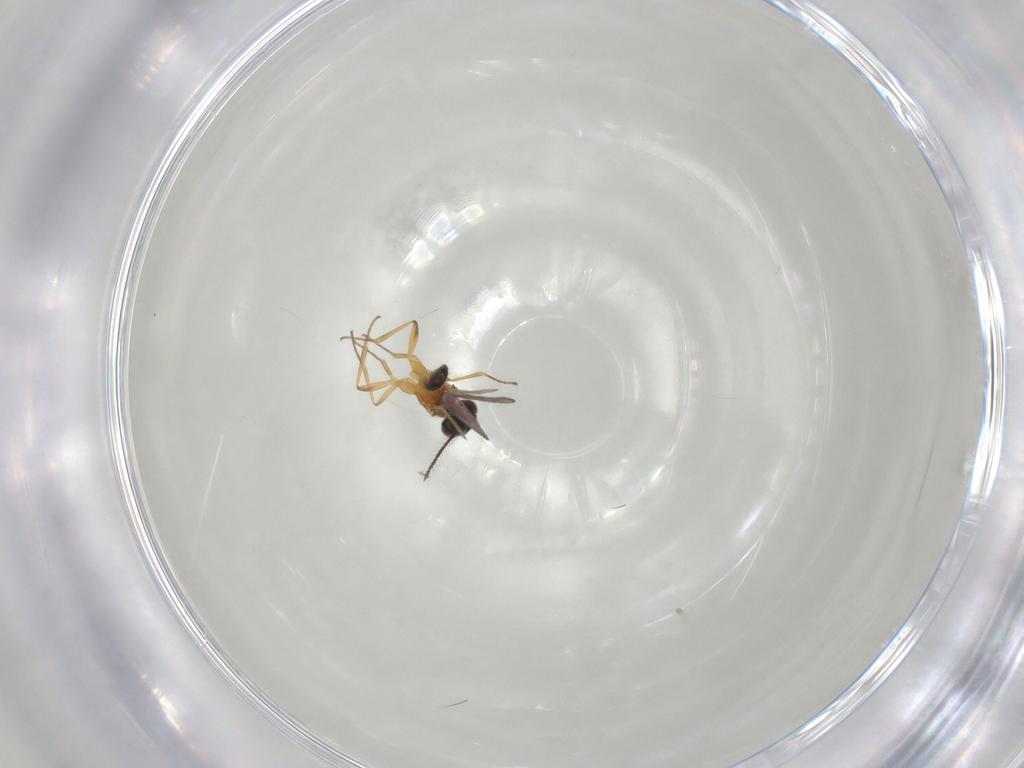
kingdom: Animalia
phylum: Arthropoda
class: Insecta
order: Hymenoptera
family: Eupelmidae
